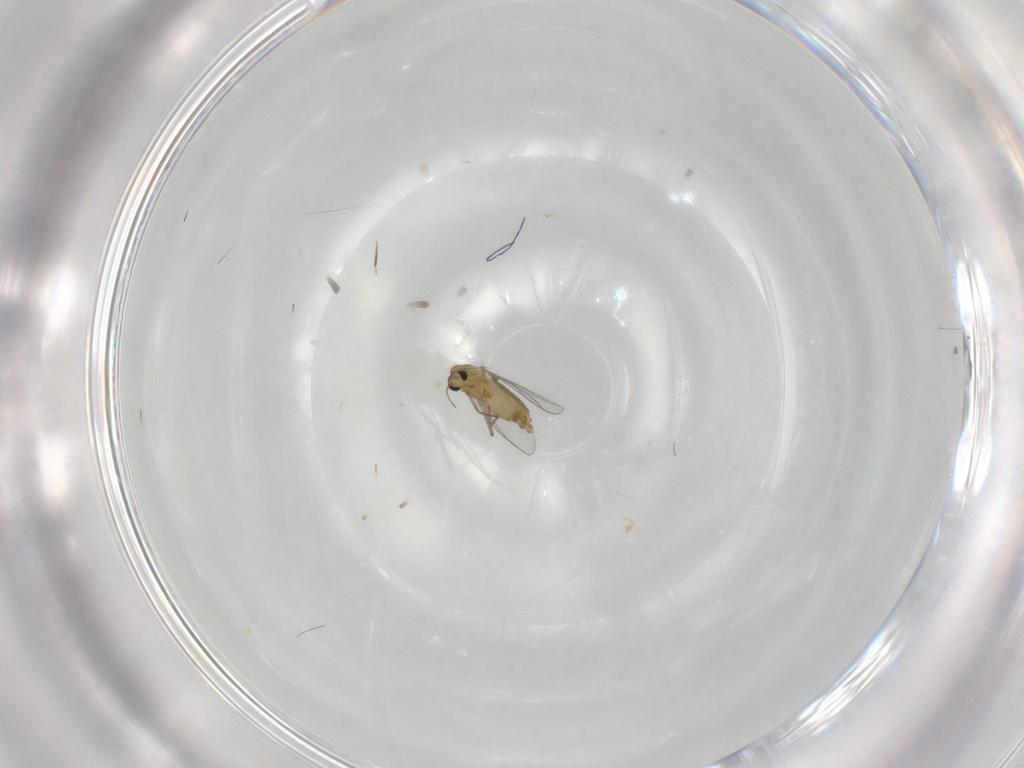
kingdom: Animalia
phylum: Arthropoda
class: Insecta
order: Diptera
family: Chironomidae
